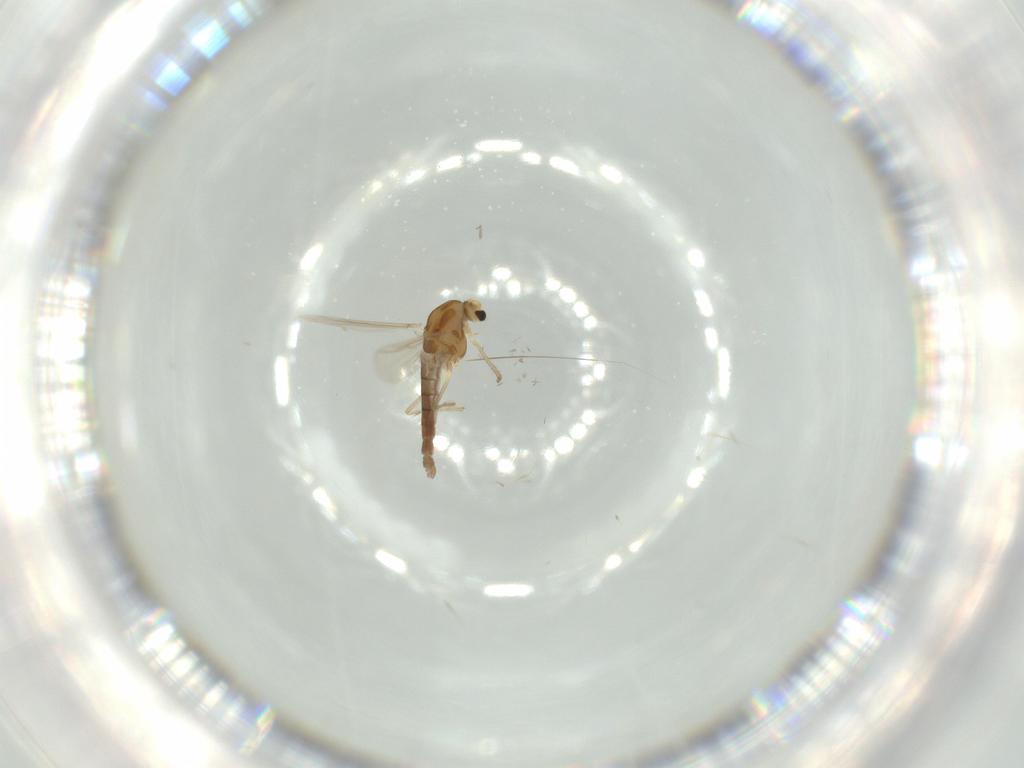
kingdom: Animalia
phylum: Arthropoda
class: Insecta
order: Diptera
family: Chironomidae
